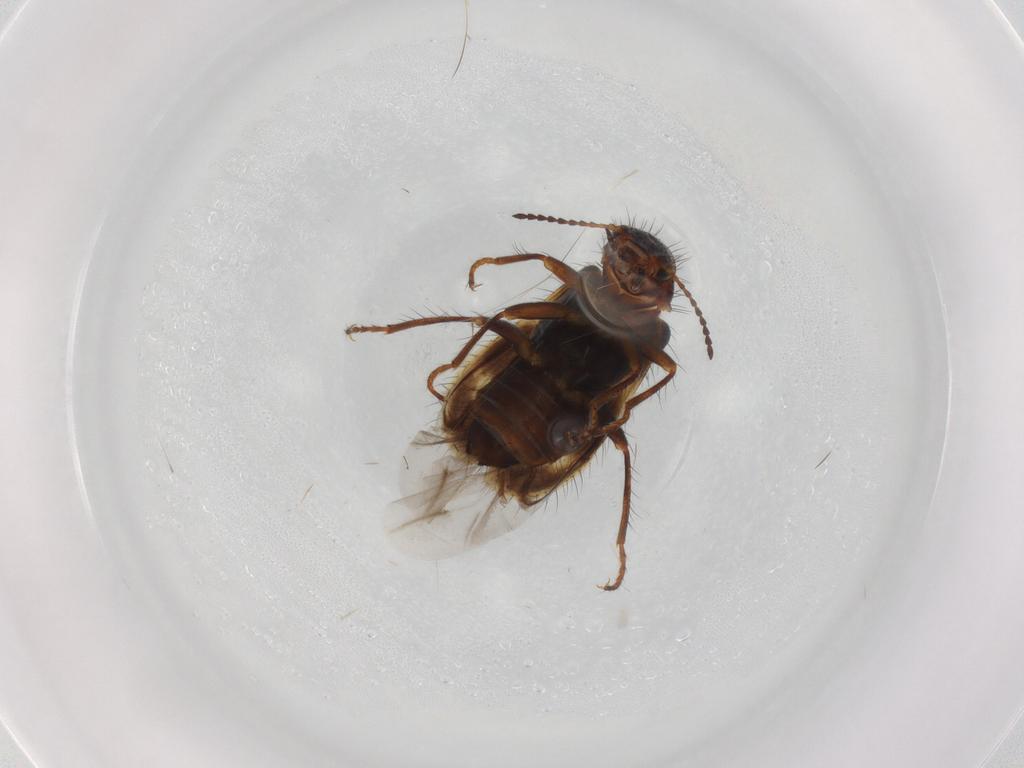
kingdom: Animalia
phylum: Arthropoda
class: Insecta
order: Coleoptera
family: Melyridae
